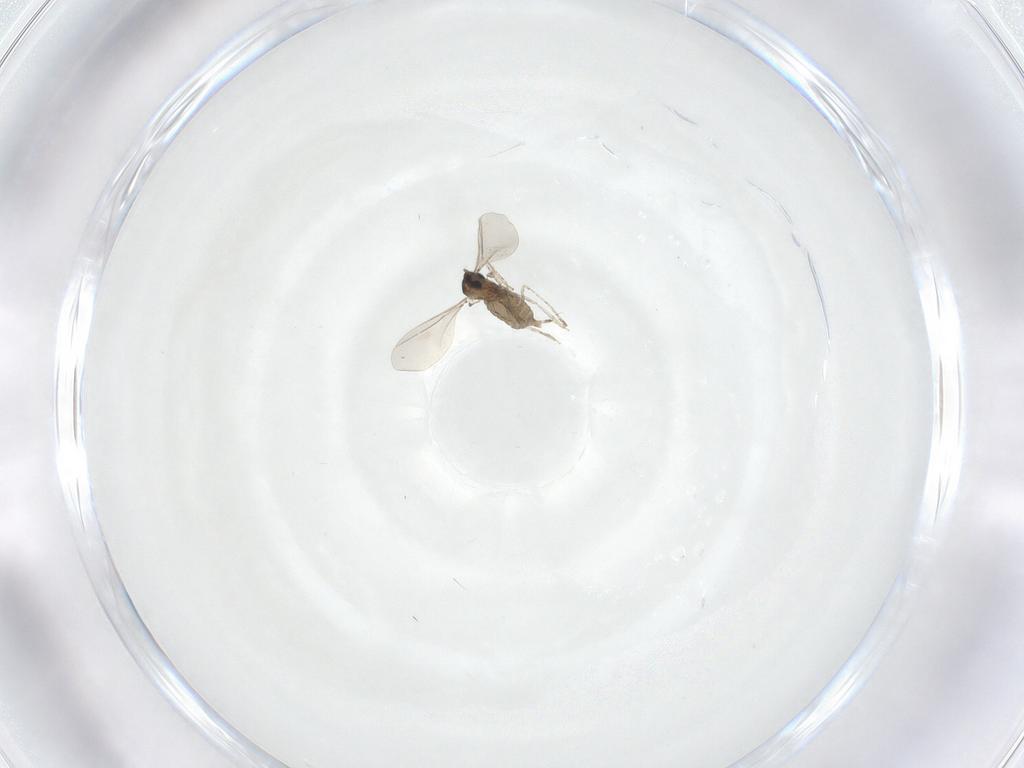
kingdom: Animalia
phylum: Arthropoda
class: Insecta
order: Diptera
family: Cecidomyiidae
